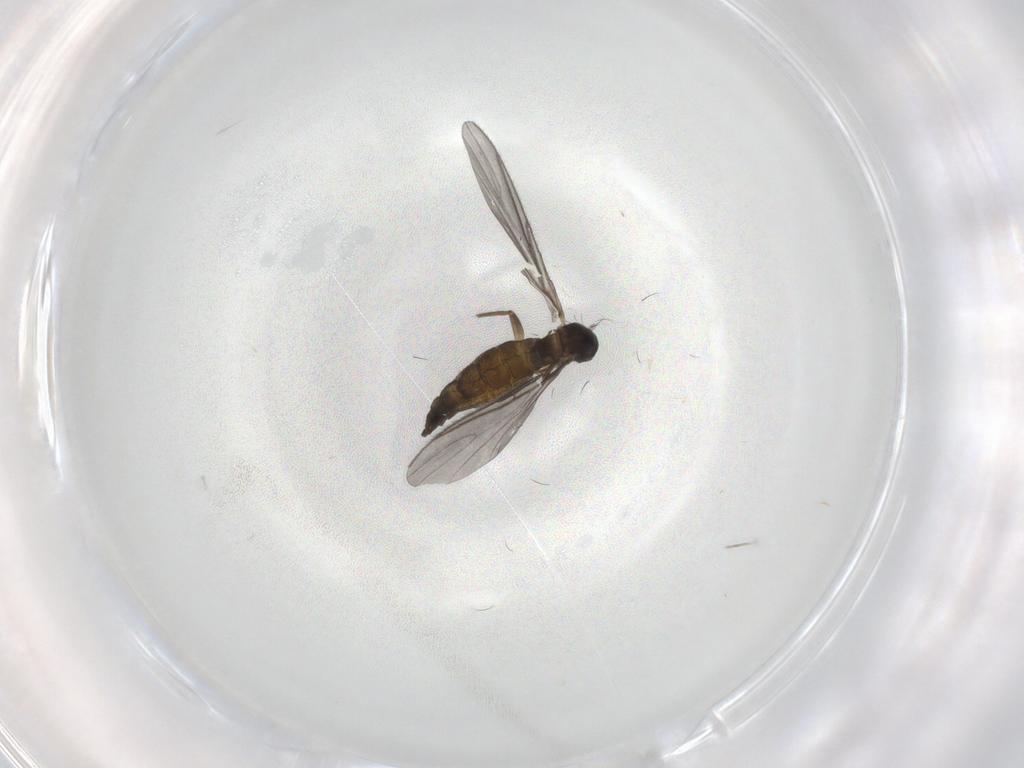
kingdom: Animalia
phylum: Arthropoda
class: Insecta
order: Diptera
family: Sciaridae
